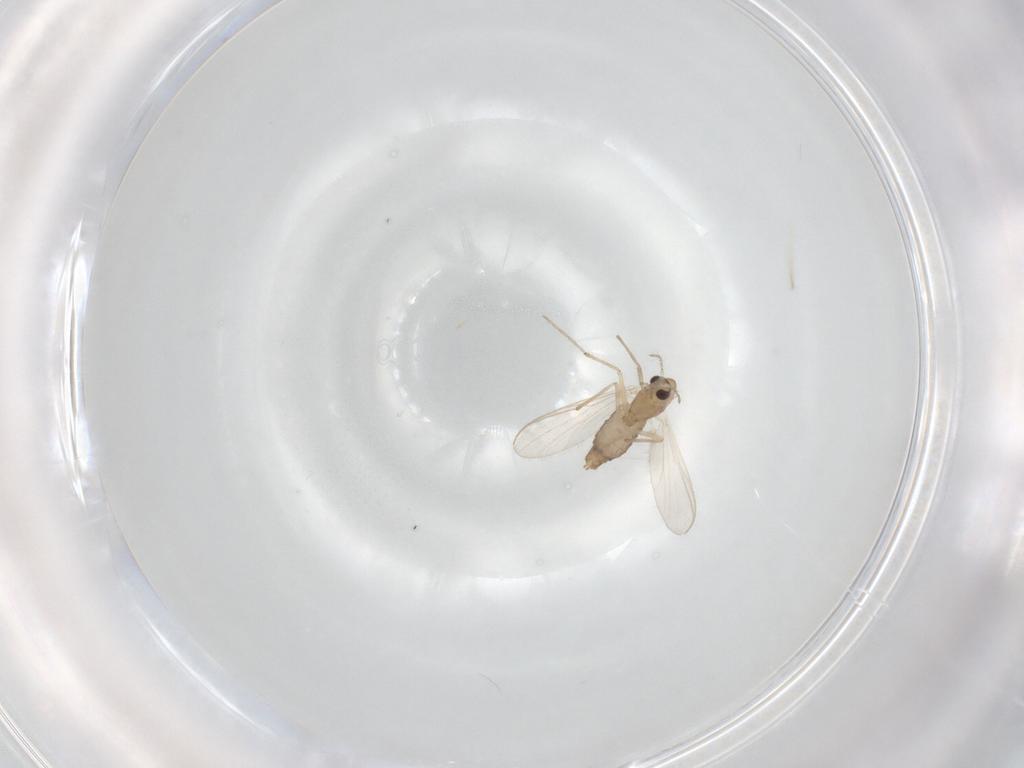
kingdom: Animalia
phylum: Arthropoda
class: Insecta
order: Diptera
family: Chironomidae
